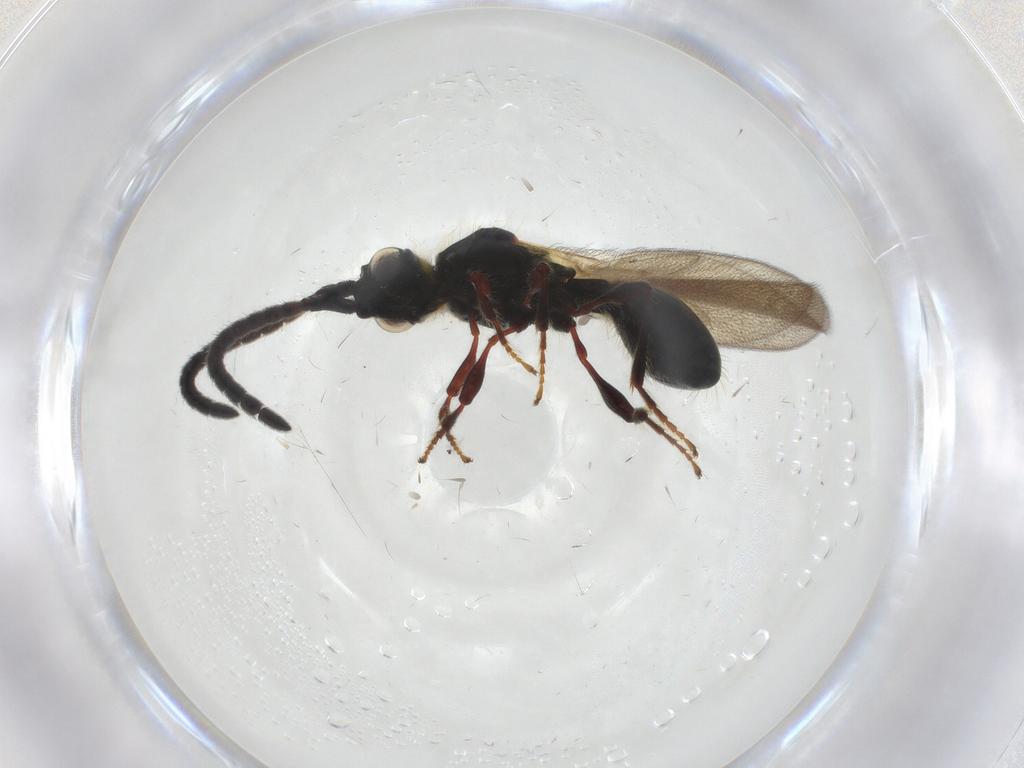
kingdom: Animalia
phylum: Arthropoda
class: Insecta
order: Hymenoptera
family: Diapriidae
